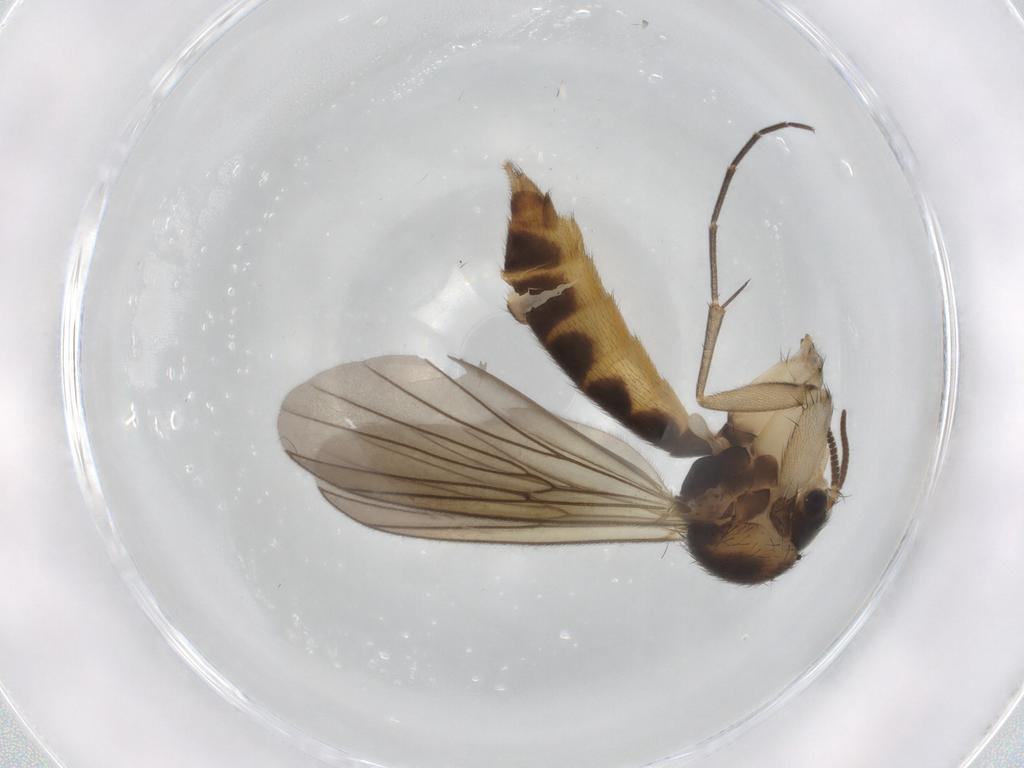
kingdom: Animalia
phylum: Arthropoda
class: Insecta
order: Diptera
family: Mycetophilidae
